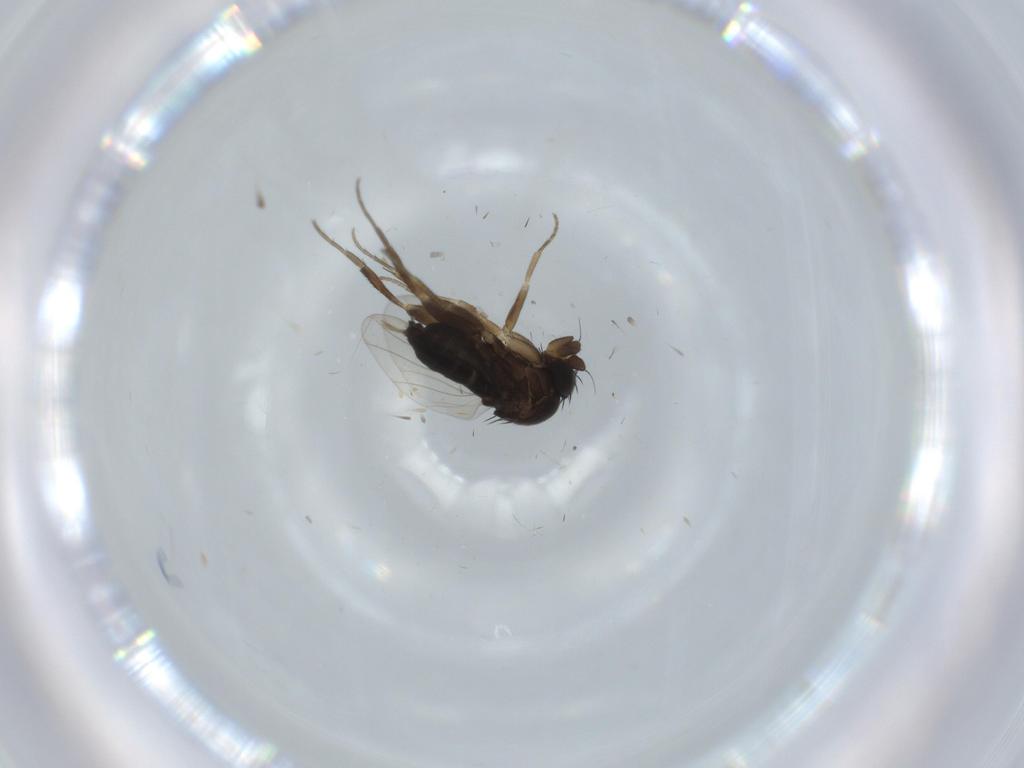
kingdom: Animalia
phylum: Arthropoda
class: Insecta
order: Diptera
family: Phoridae
